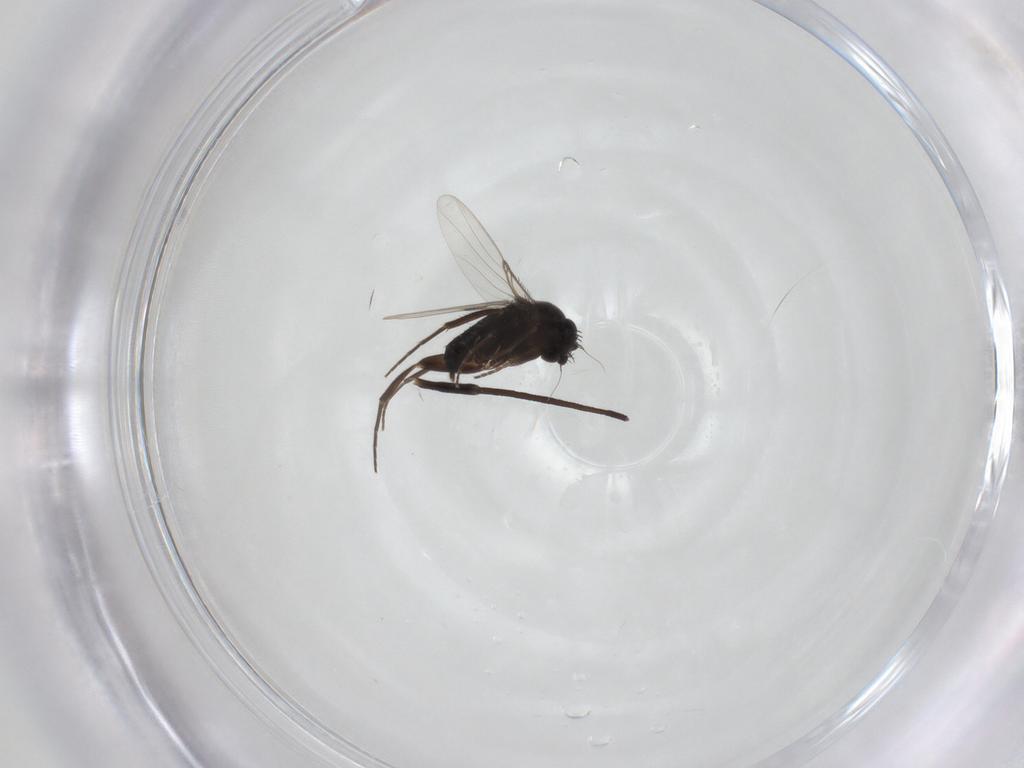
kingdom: Animalia
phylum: Arthropoda
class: Insecta
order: Diptera
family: Phoridae
